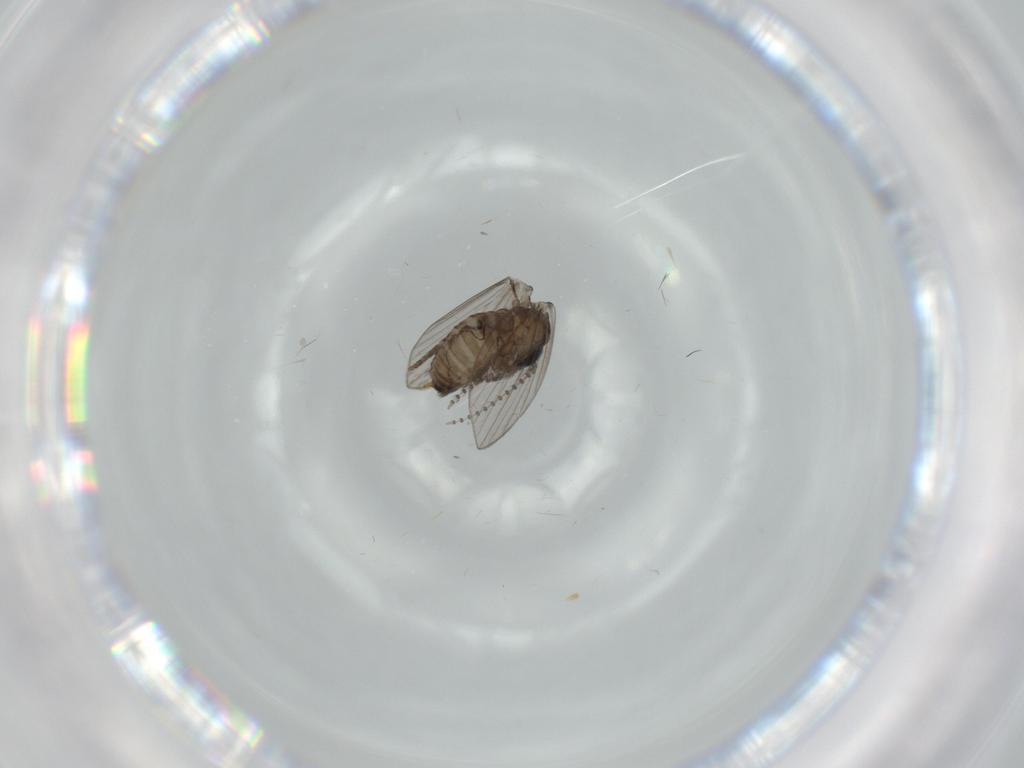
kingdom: Animalia
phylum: Arthropoda
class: Insecta
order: Diptera
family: Psychodidae
